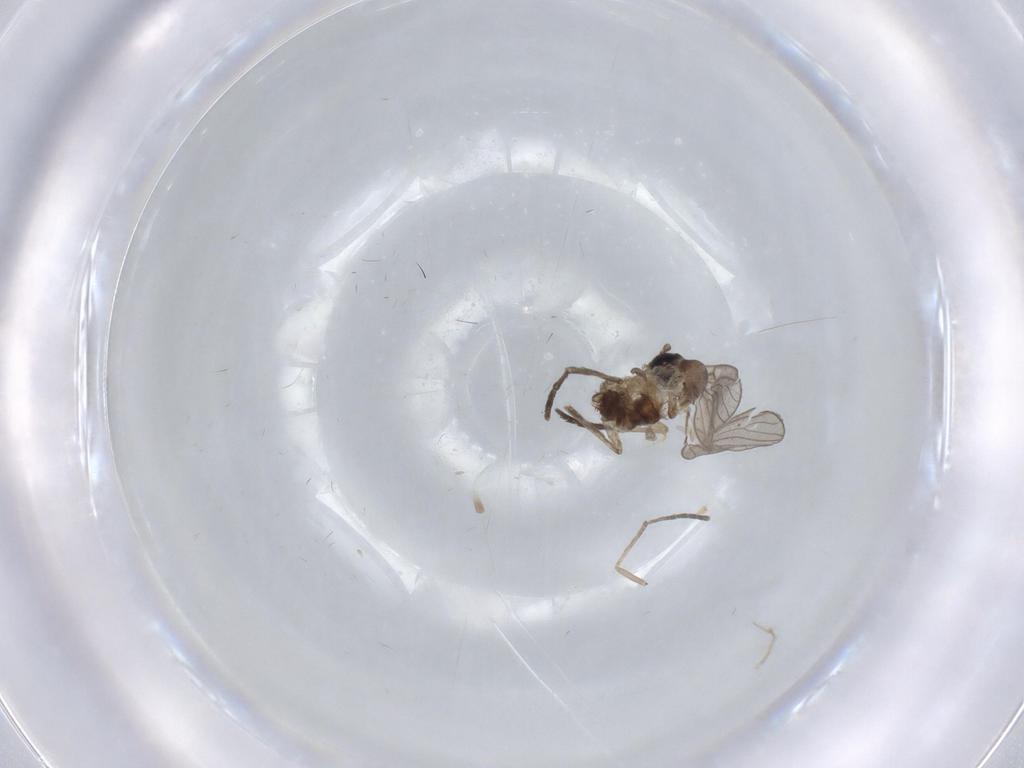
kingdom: Animalia
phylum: Arthropoda
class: Insecta
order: Diptera
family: Psychodidae
